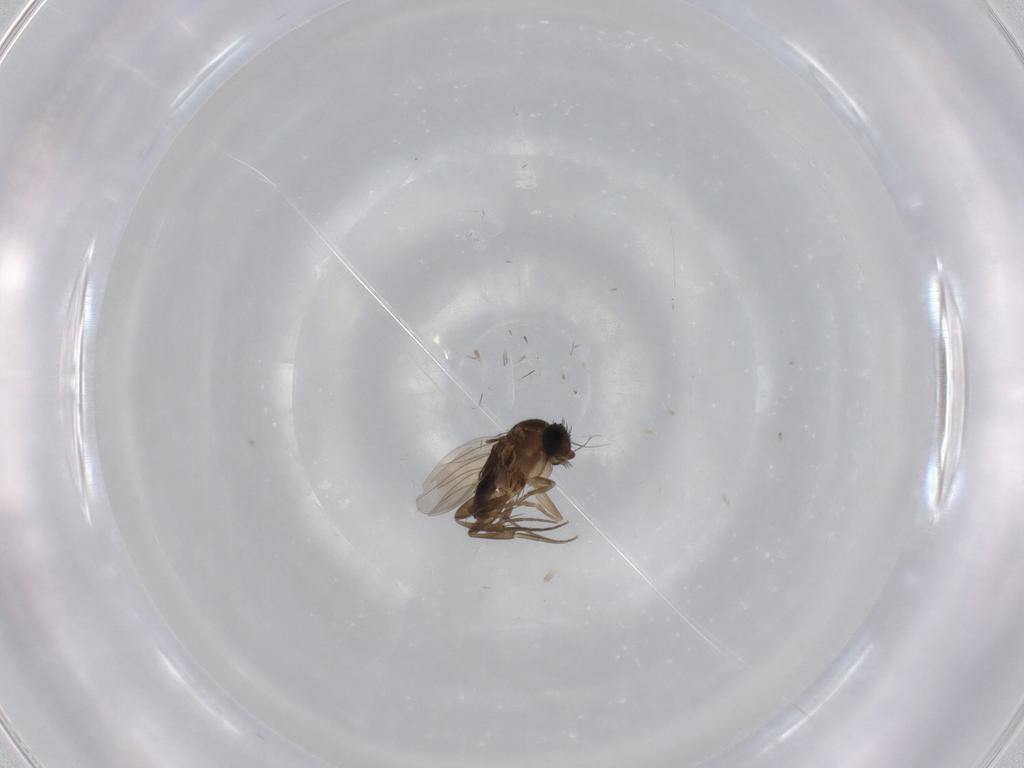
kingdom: Animalia
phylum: Arthropoda
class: Insecta
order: Diptera
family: Phoridae
